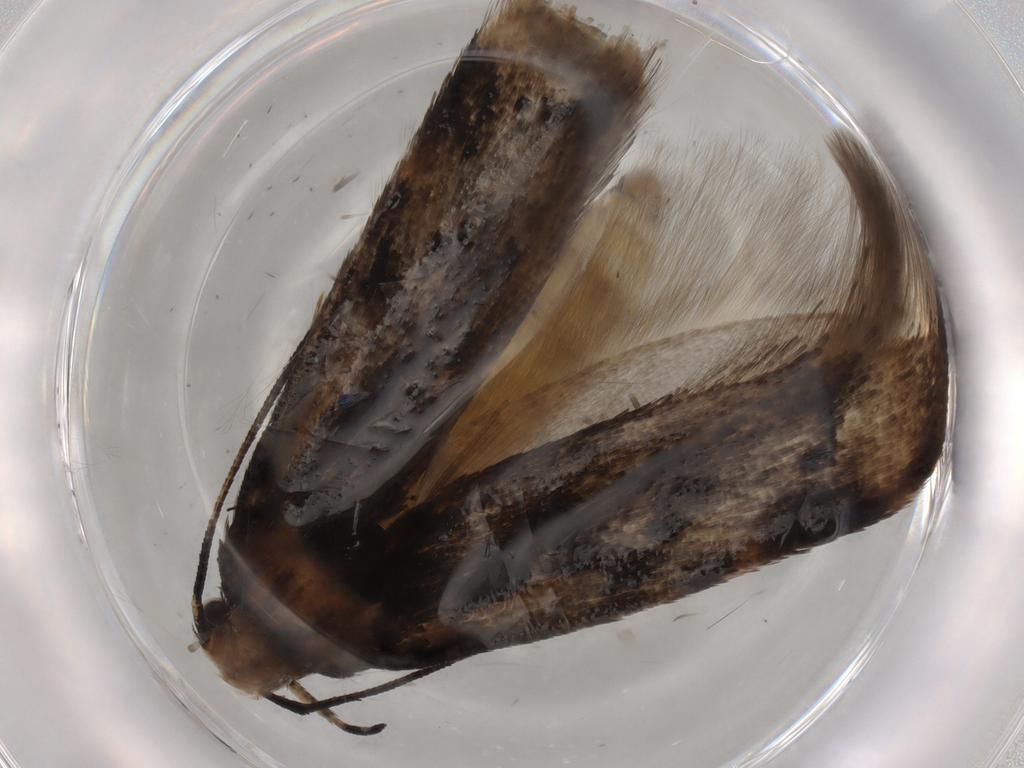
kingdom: Animalia
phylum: Arthropoda
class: Insecta
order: Lepidoptera
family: Gelechiidae
